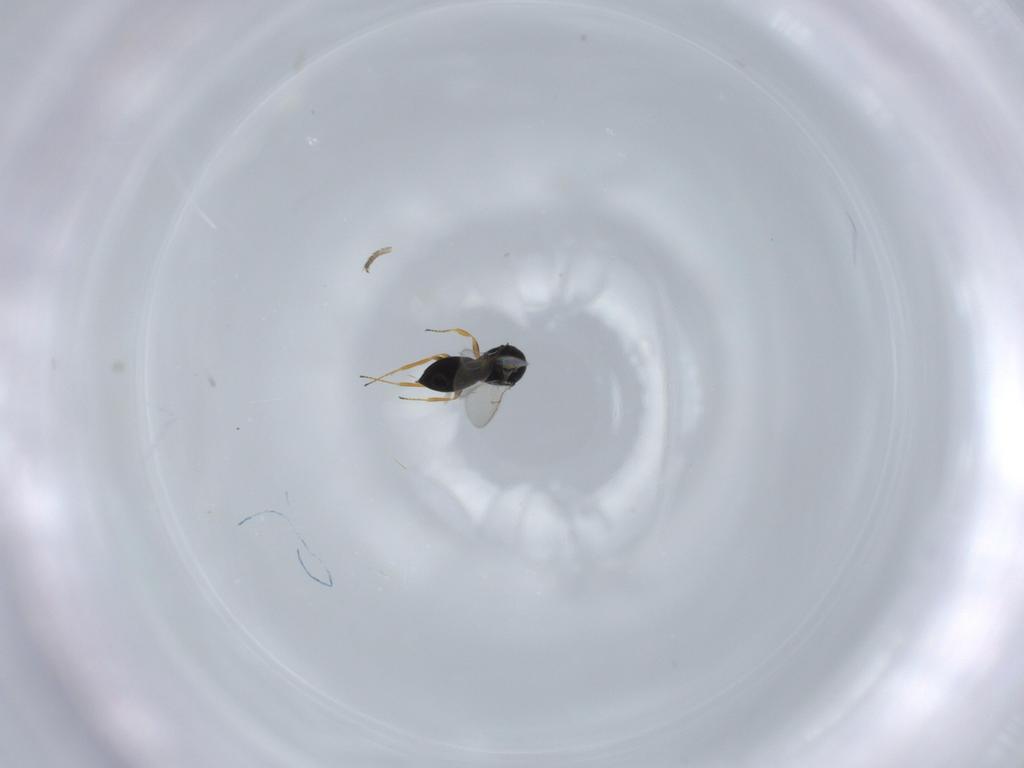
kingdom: Animalia
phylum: Arthropoda
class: Insecta
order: Hymenoptera
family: Scelionidae
